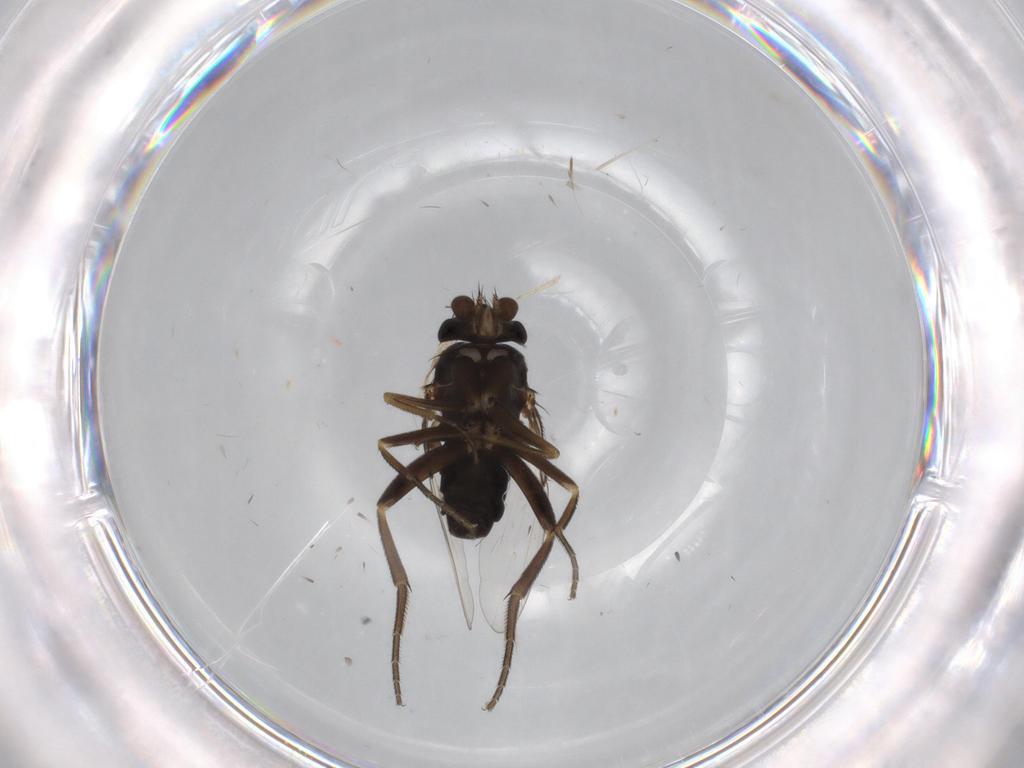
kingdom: Animalia
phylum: Arthropoda
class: Insecta
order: Diptera
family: Phoridae
